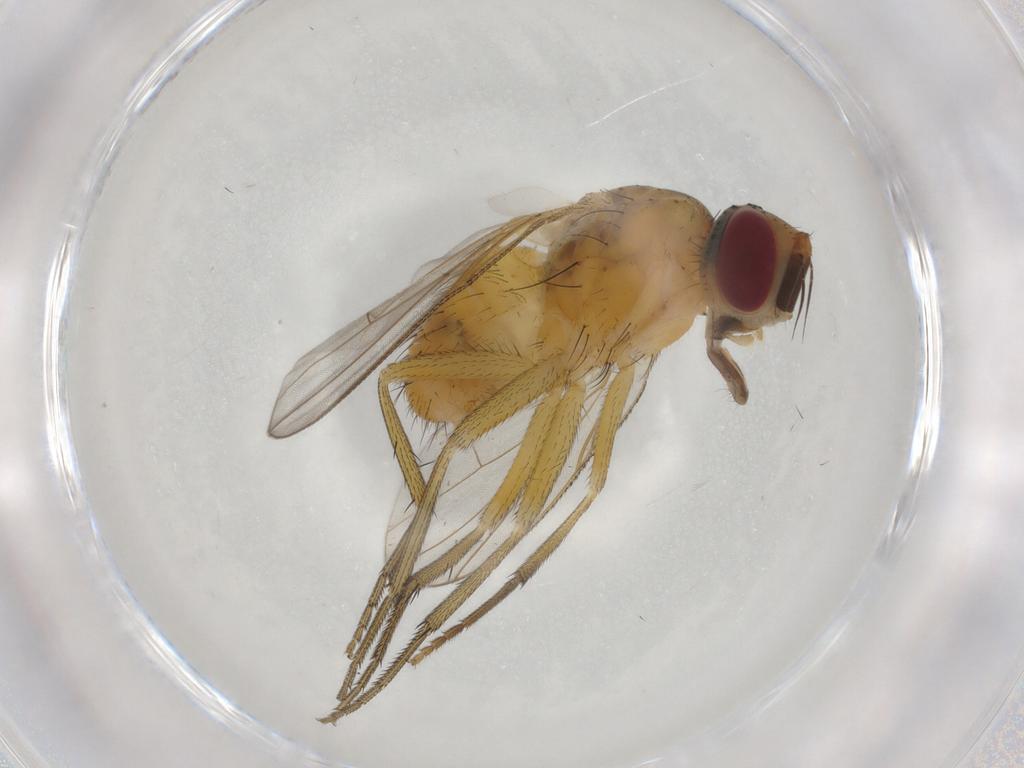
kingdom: Animalia
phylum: Arthropoda
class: Insecta
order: Diptera
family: Muscidae
